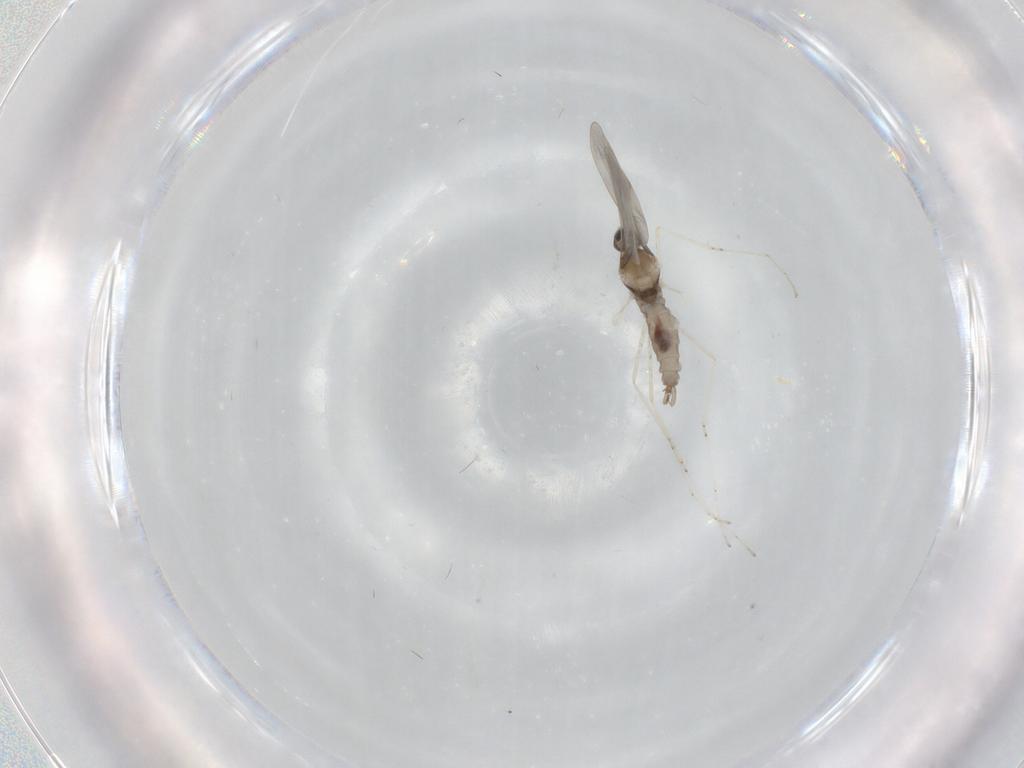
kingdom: Animalia
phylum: Arthropoda
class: Insecta
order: Diptera
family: Cecidomyiidae
